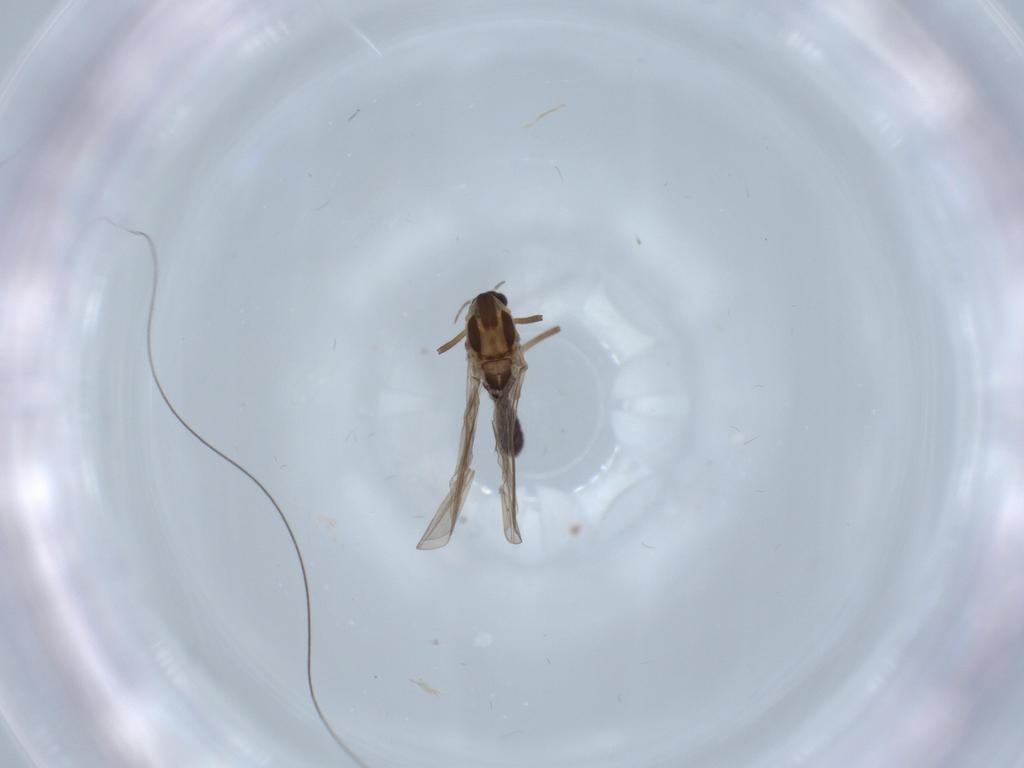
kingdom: Animalia
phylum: Arthropoda
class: Insecta
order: Diptera
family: Chironomidae
